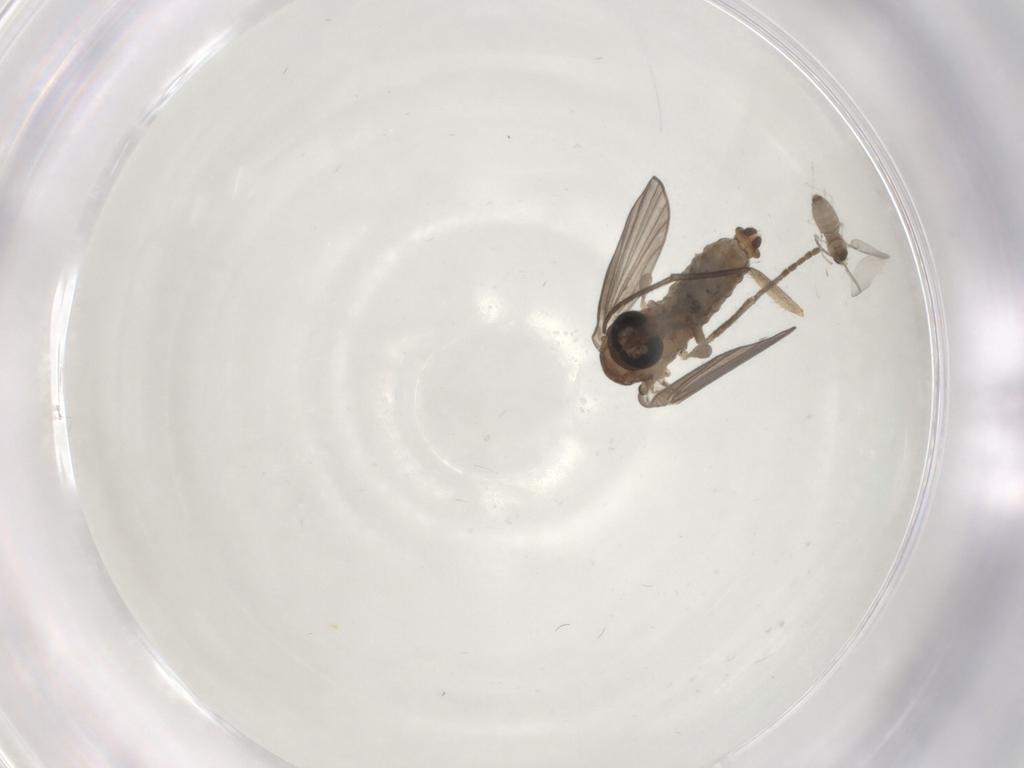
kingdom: Animalia
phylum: Arthropoda
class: Insecta
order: Diptera
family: Psychodidae
